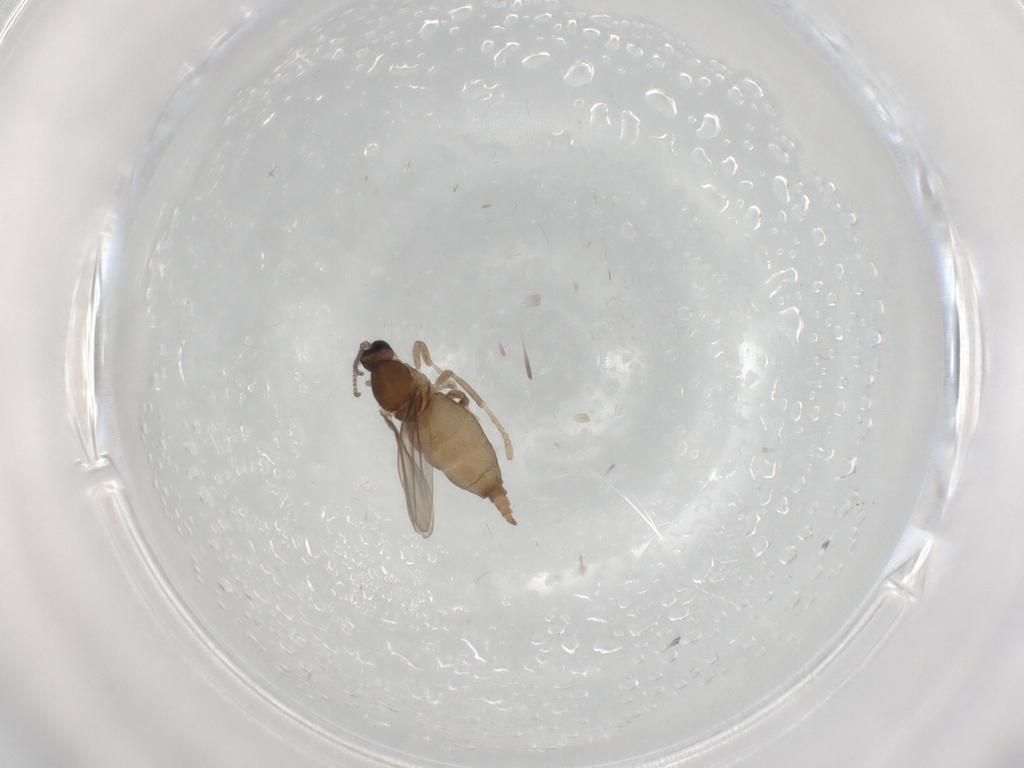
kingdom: Animalia
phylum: Arthropoda
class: Insecta
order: Diptera
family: Cecidomyiidae
